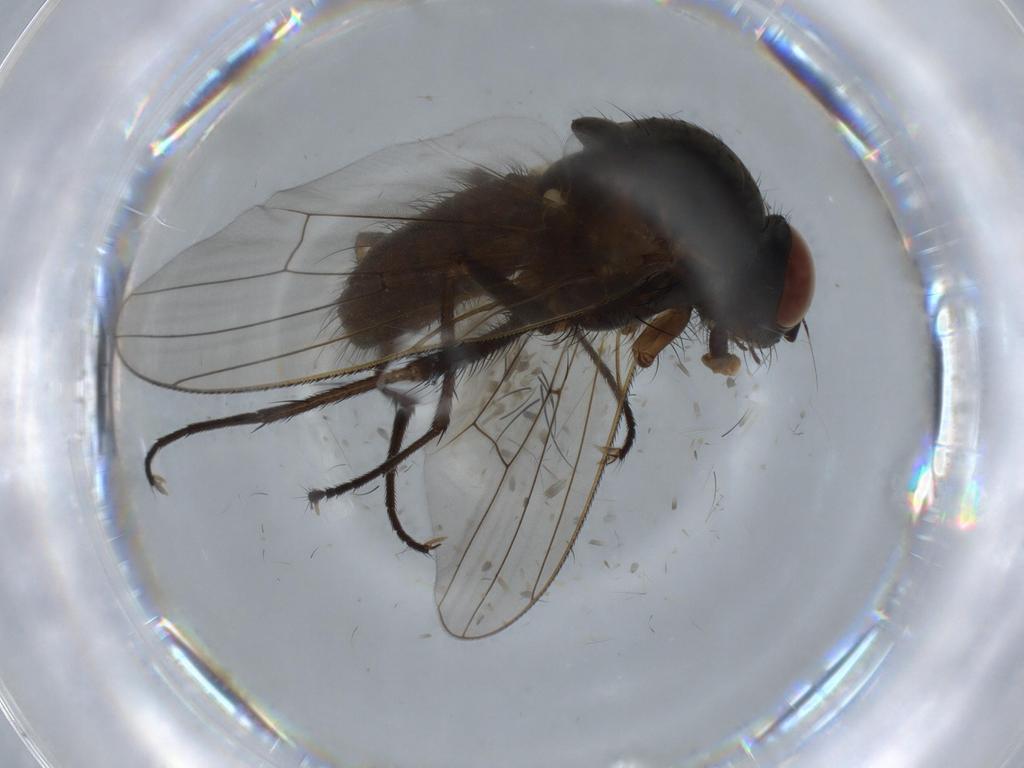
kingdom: Animalia
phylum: Arthropoda
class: Insecta
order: Diptera
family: Anthomyiidae
